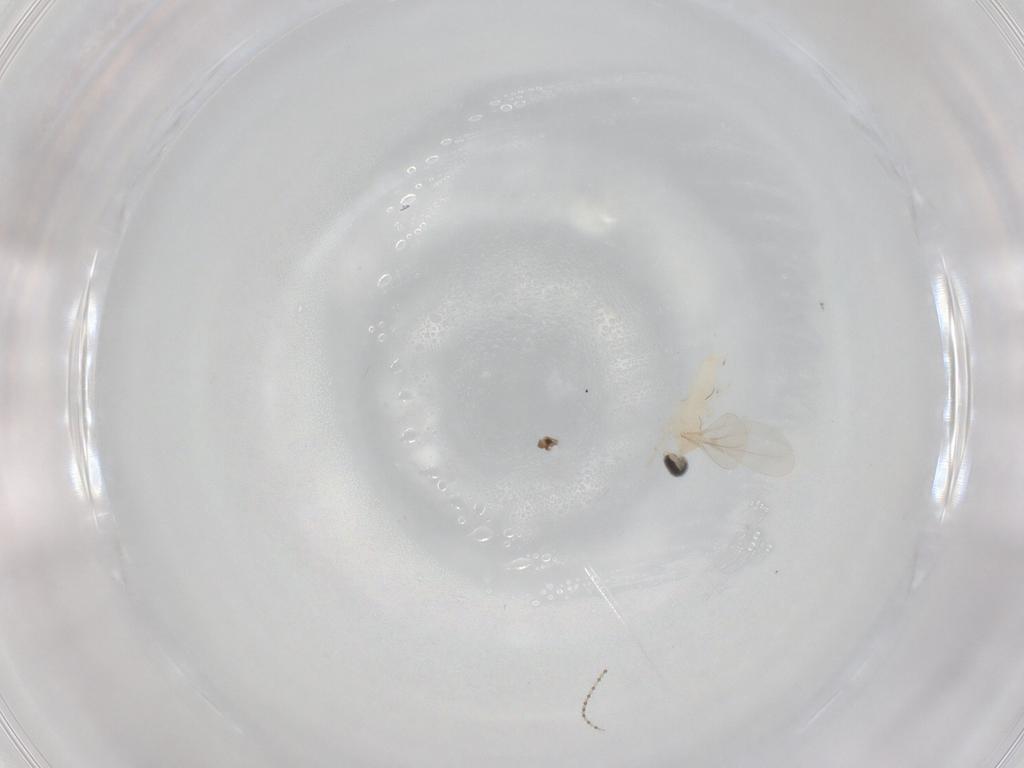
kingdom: Animalia
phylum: Arthropoda
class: Insecta
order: Diptera
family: Cecidomyiidae
